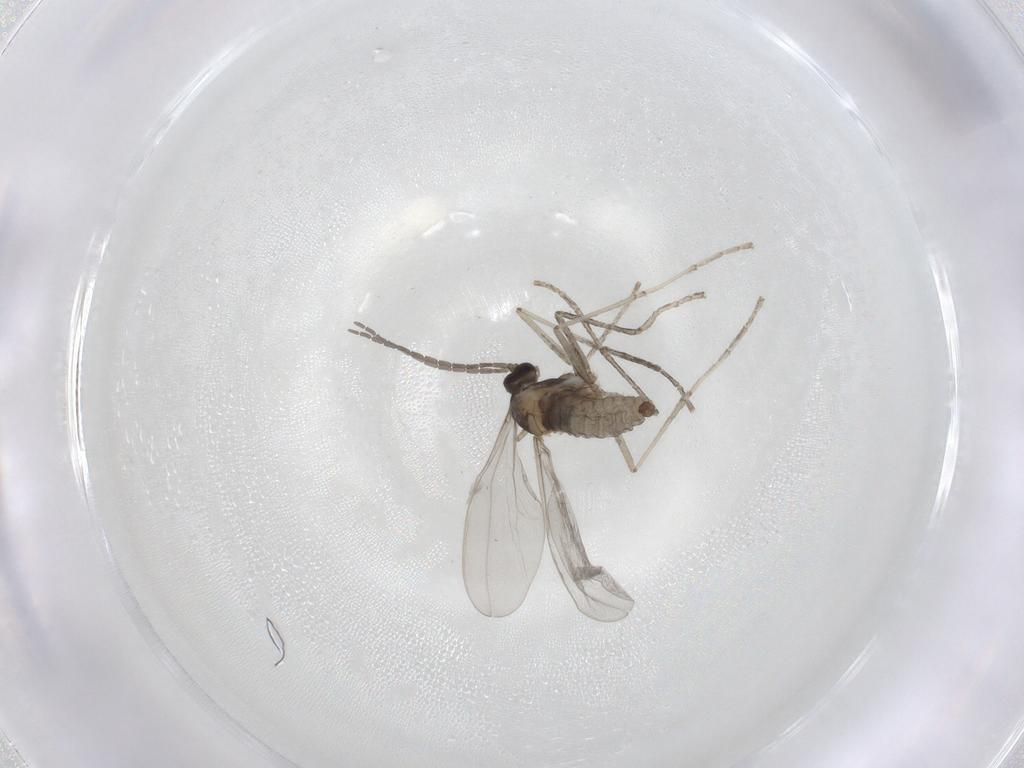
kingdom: Animalia
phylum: Arthropoda
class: Insecta
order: Diptera
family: Cecidomyiidae
